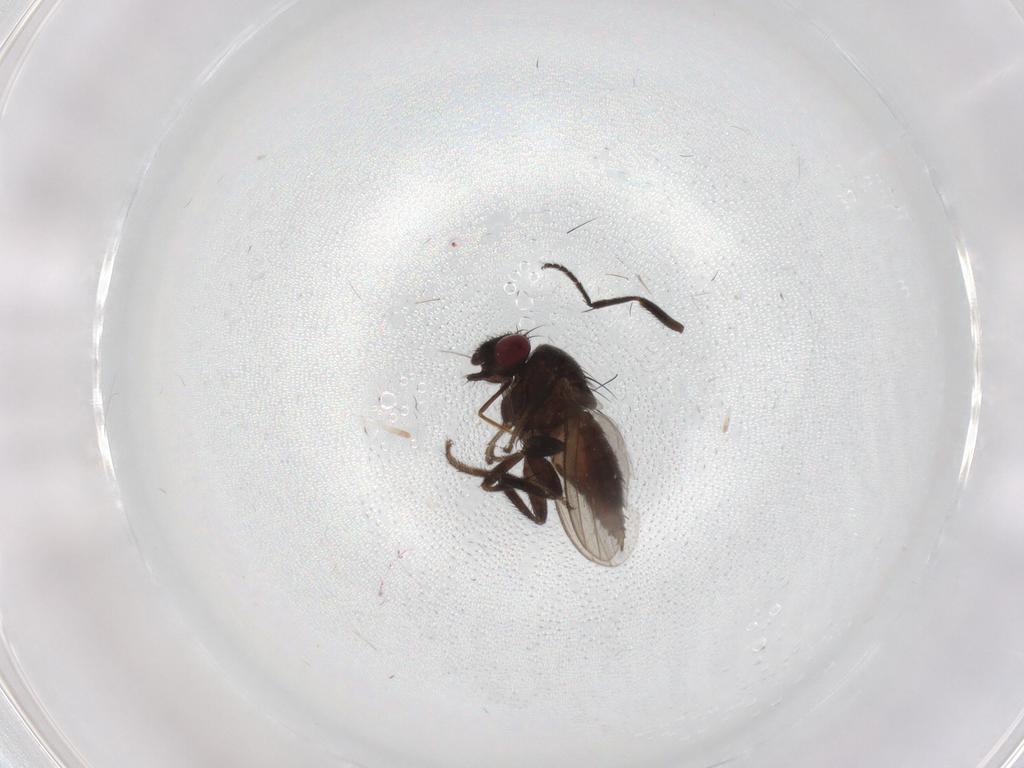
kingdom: Animalia
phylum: Arthropoda
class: Insecta
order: Diptera
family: Milichiidae
